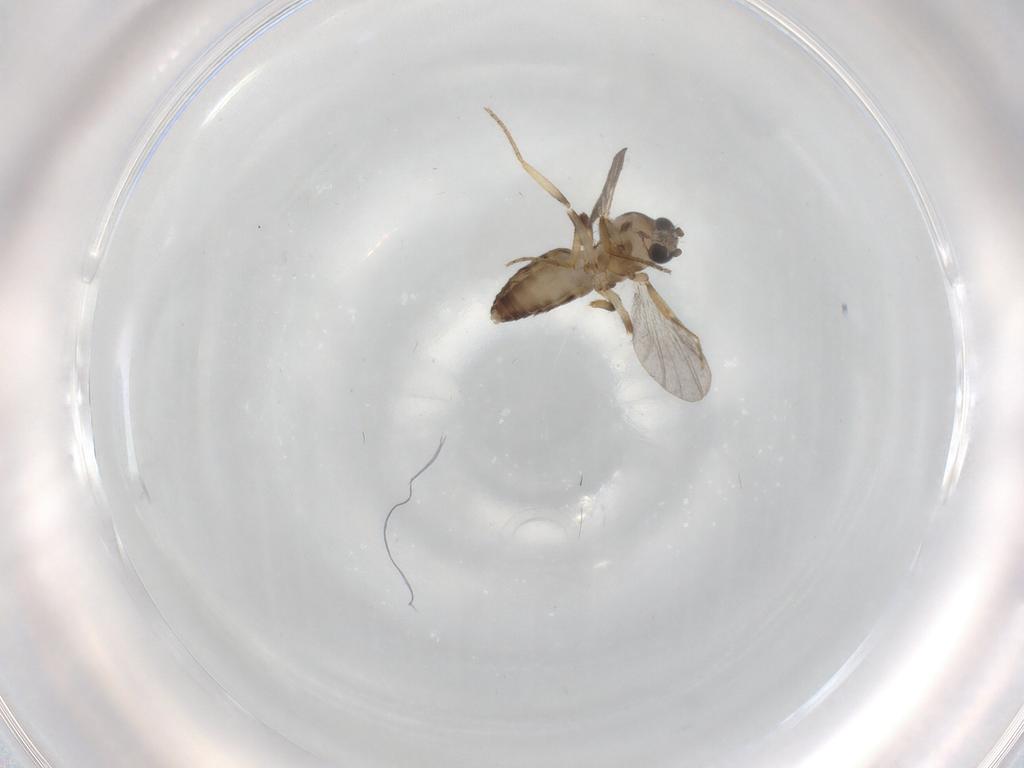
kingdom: Animalia
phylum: Arthropoda
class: Insecta
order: Diptera
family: Ceratopogonidae
